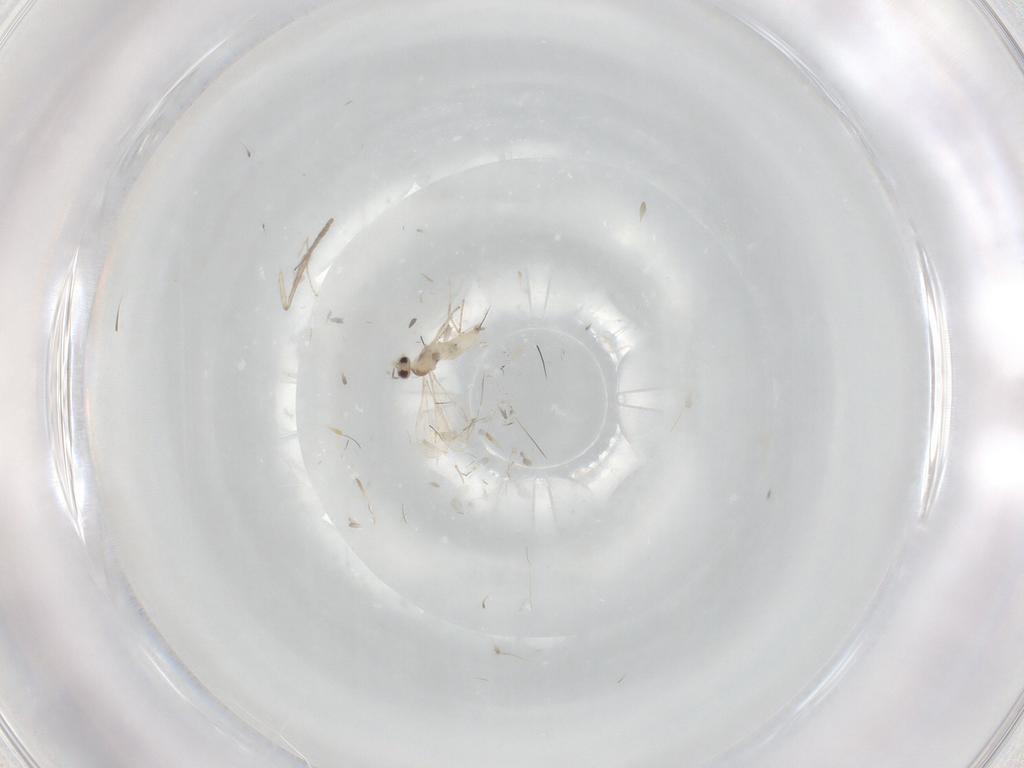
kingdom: Animalia
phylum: Arthropoda
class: Insecta
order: Diptera
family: Cecidomyiidae
